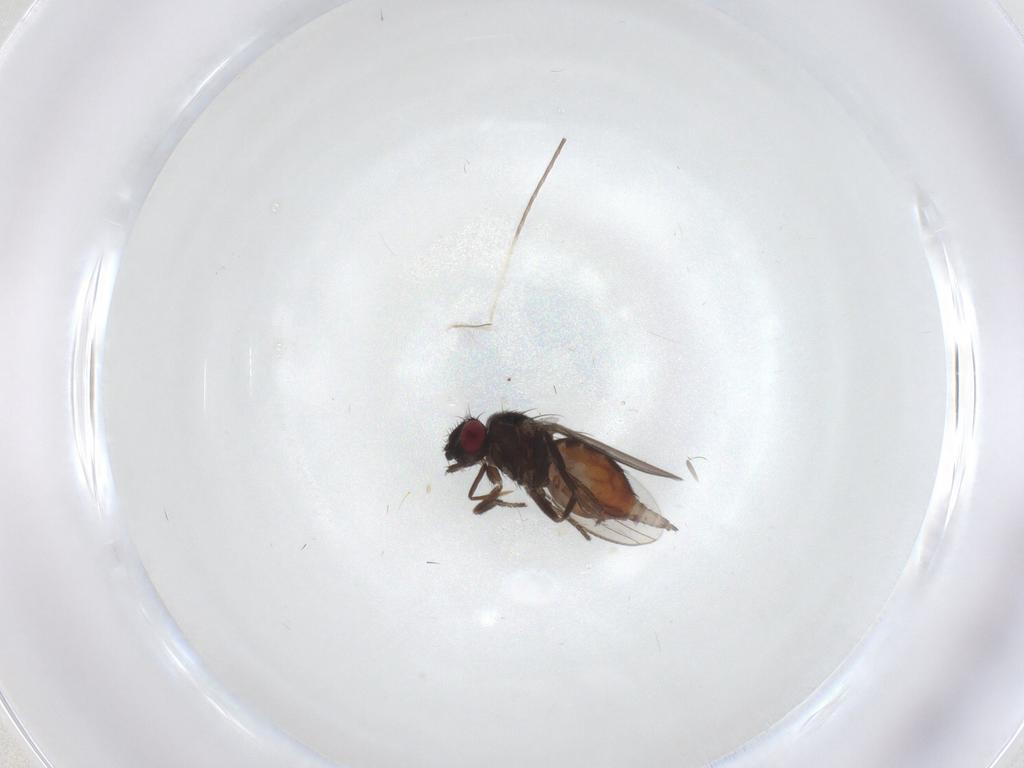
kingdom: Animalia
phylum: Arthropoda
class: Insecta
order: Diptera
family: Milichiidae
